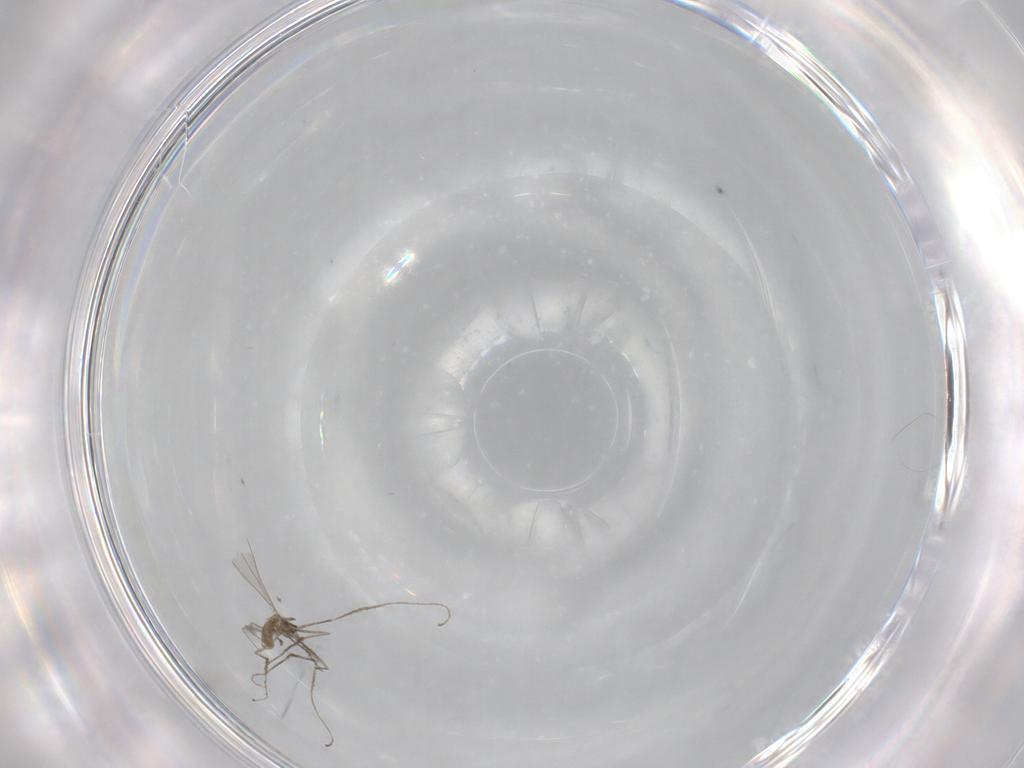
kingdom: Animalia
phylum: Arthropoda
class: Insecta
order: Diptera
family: Cecidomyiidae
